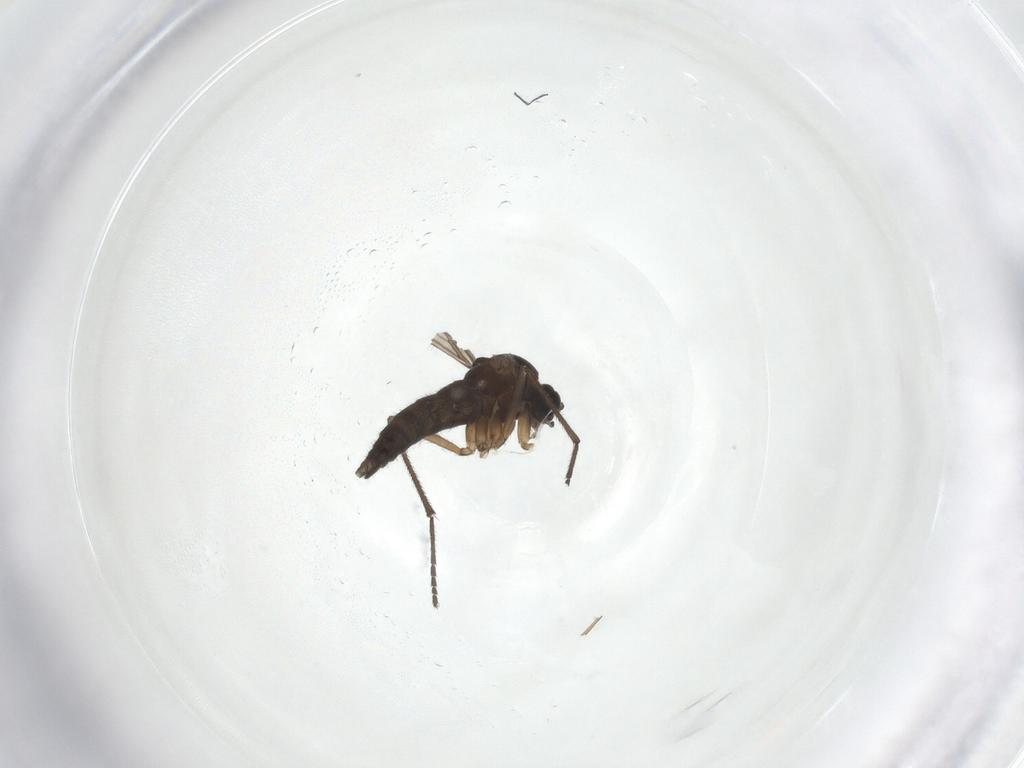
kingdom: Animalia
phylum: Arthropoda
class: Insecta
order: Diptera
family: Sciaridae
